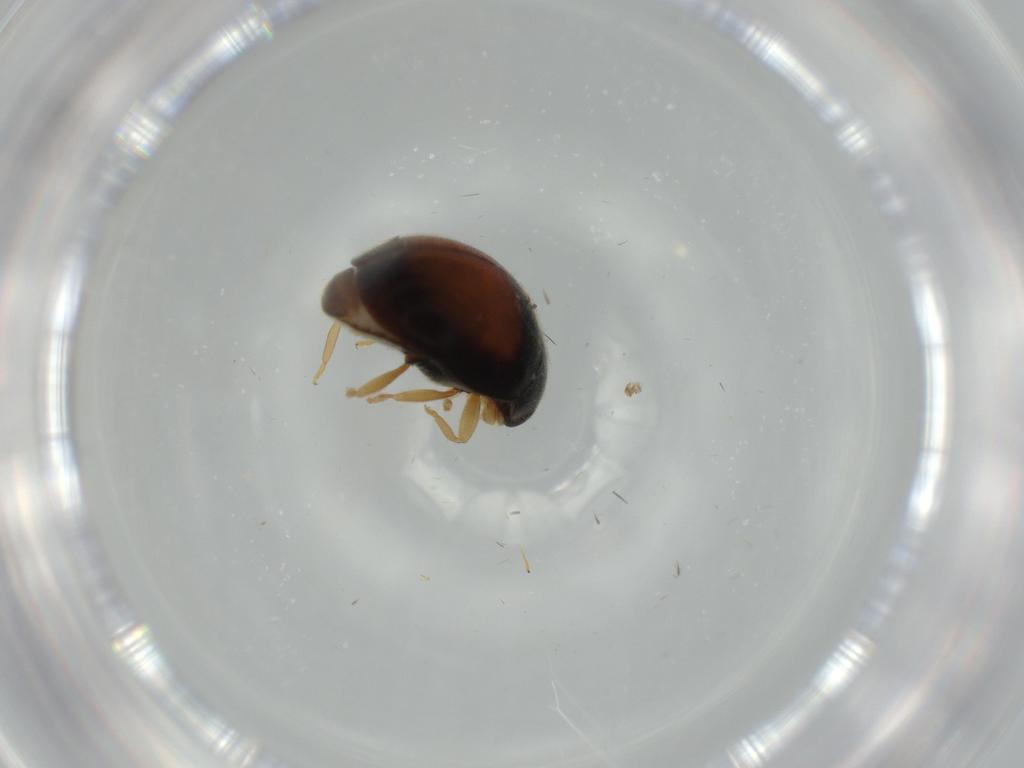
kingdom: Animalia
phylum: Arthropoda
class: Insecta
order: Coleoptera
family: Coccinellidae
